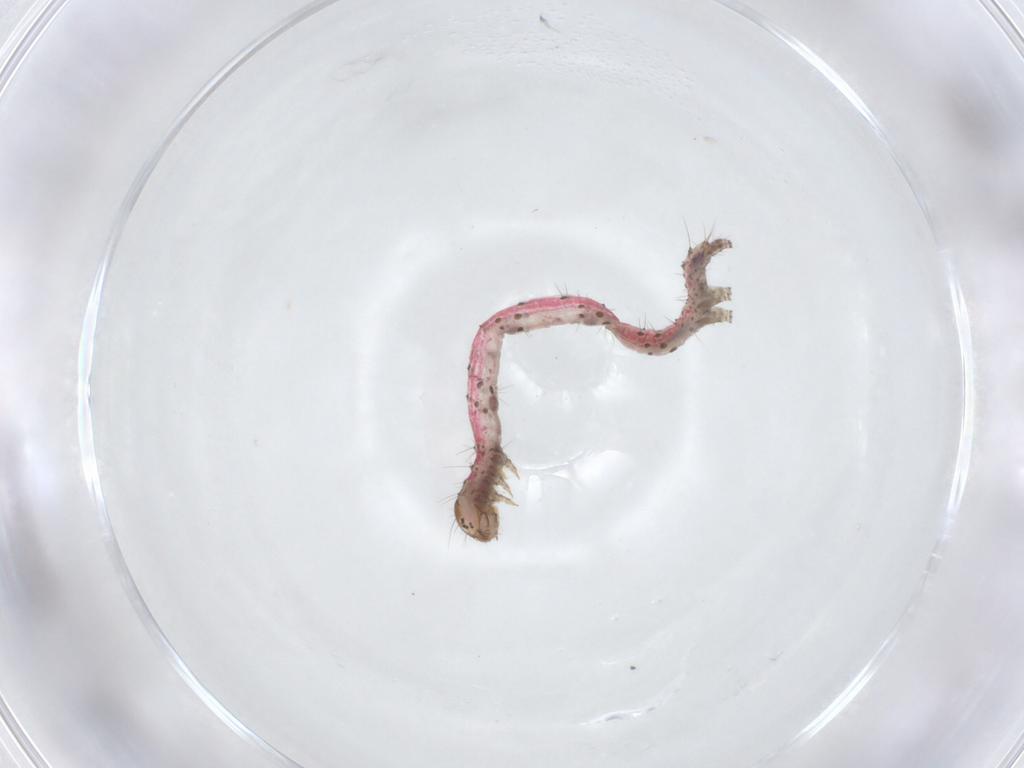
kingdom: Animalia
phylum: Arthropoda
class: Insecta
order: Lepidoptera
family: Erebidae
